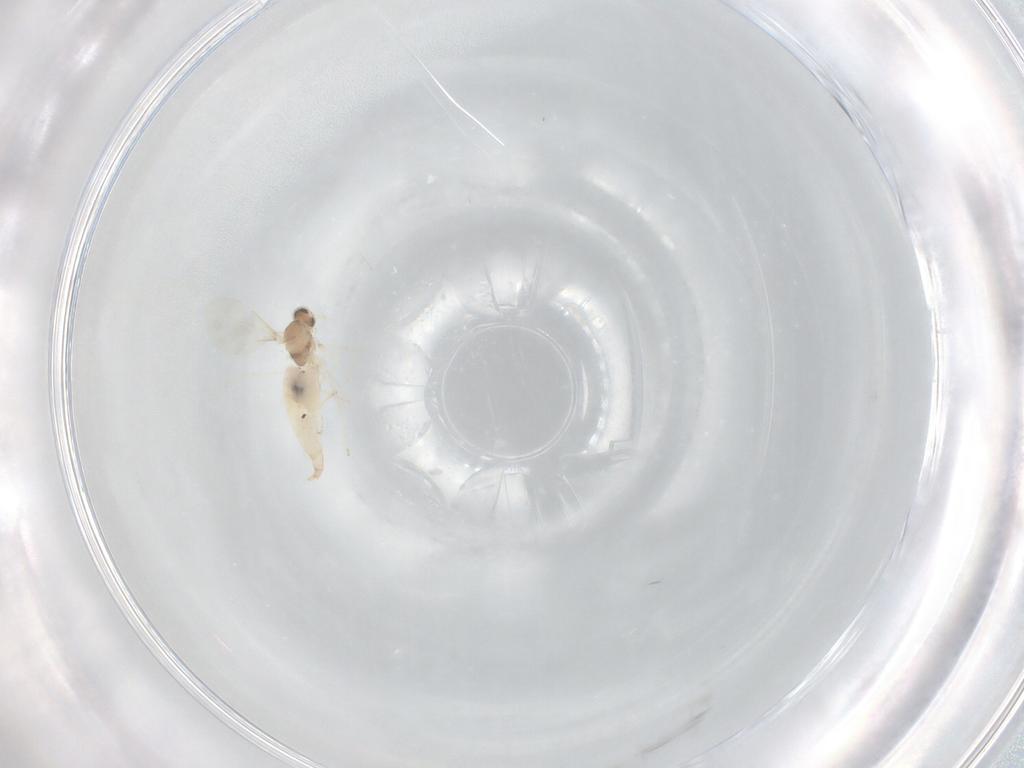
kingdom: Animalia
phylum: Arthropoda
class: Insecta
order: Diptera
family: Cecidomyiidae
